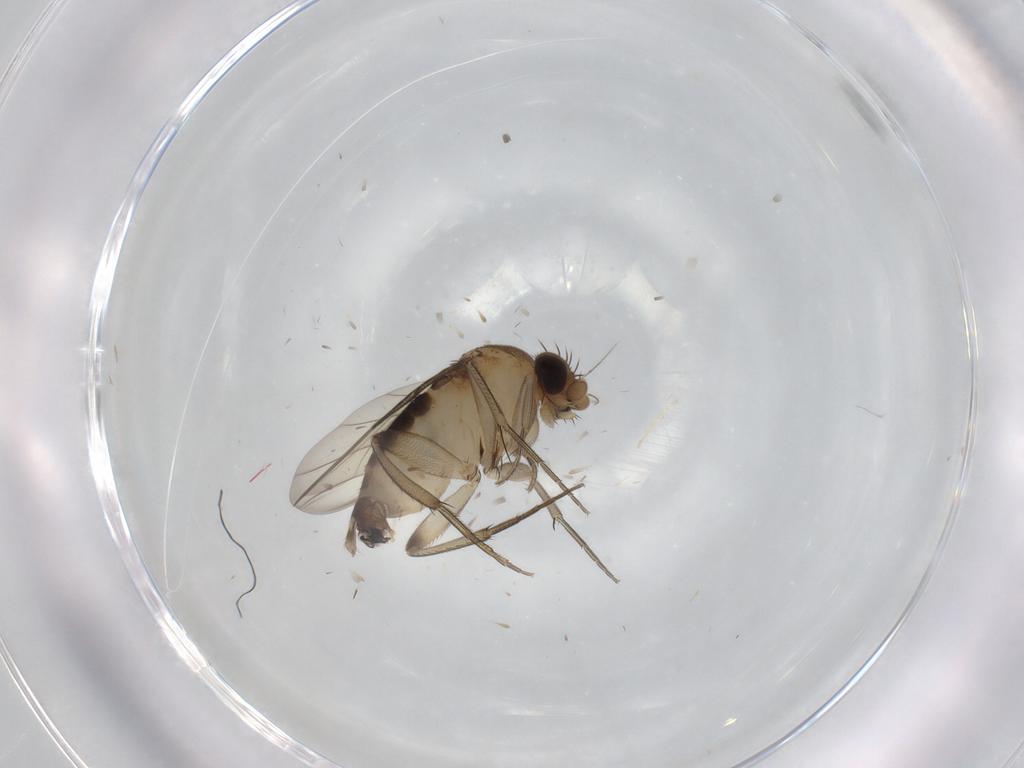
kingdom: Animalia
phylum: Arthropoda
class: Insecta
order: Diptera
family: Phoridae
